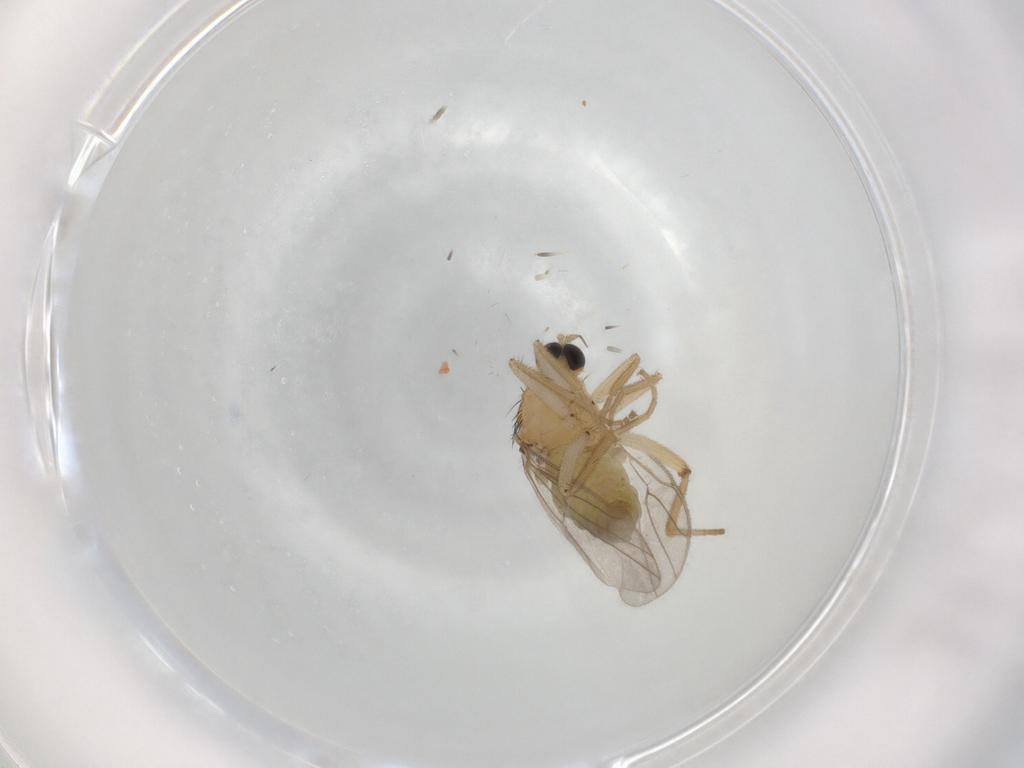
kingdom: Animalia
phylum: Arthropoda
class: Insecta
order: Diptera
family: Hybotidae
